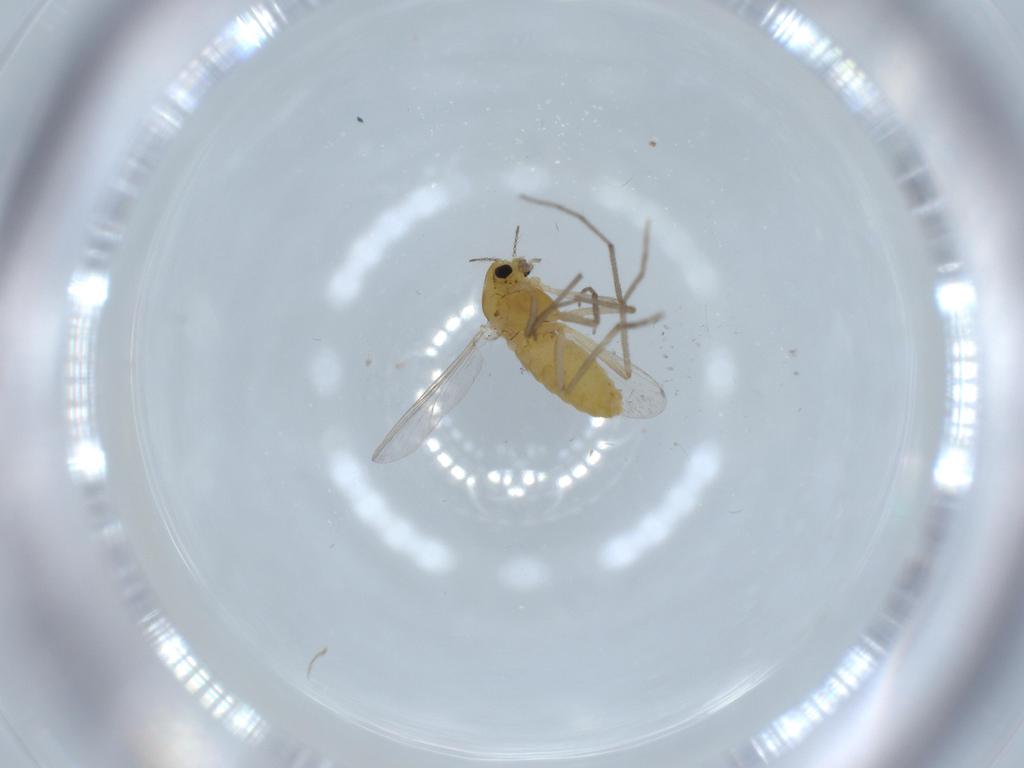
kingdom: Animalia
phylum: Arthropoda
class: Insecta
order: Diptera
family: Chironomidae
